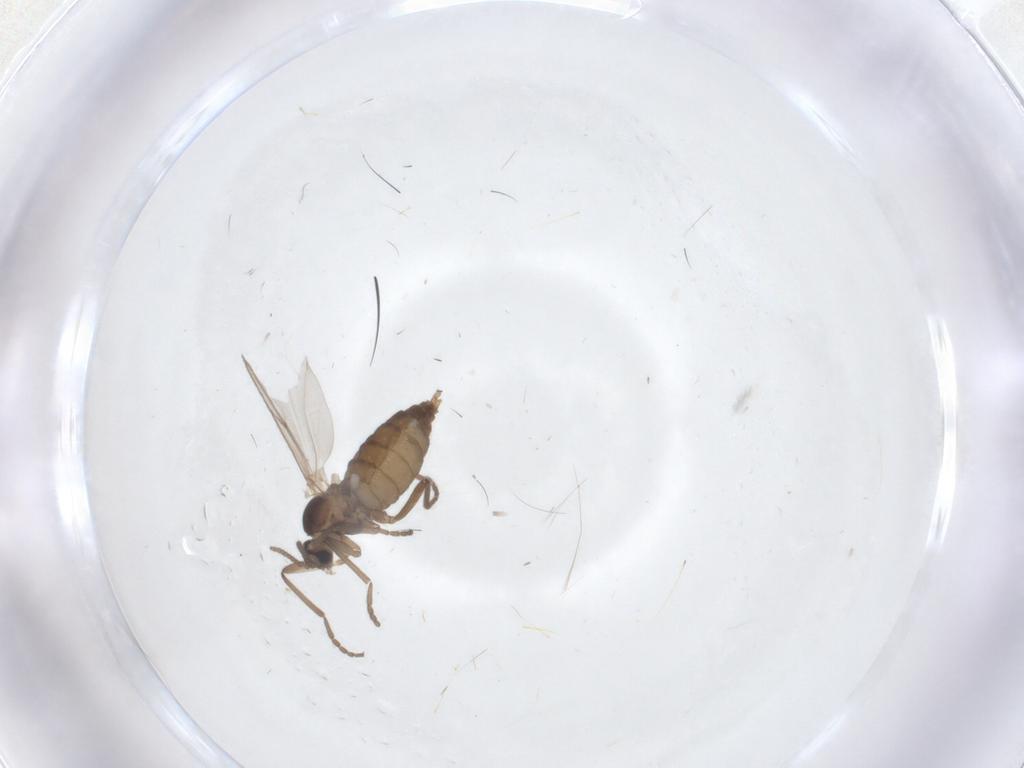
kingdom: Animalia
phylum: Arthropoda
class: Insecta
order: Diptera
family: Cecidomyiidae
